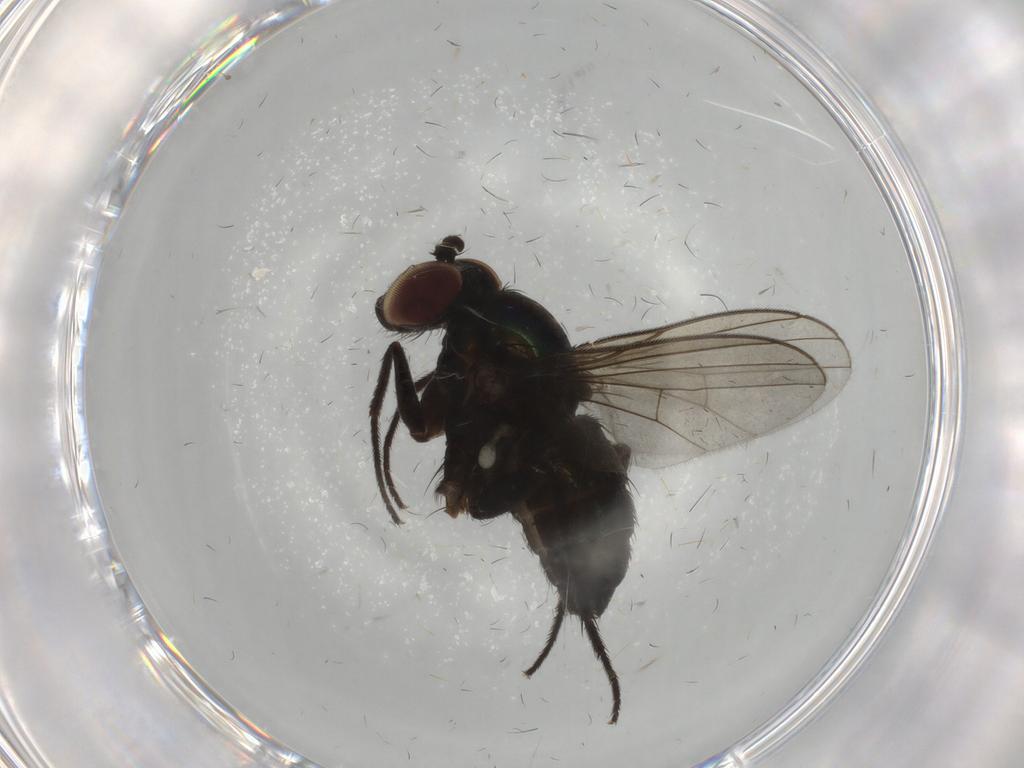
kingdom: Animalia
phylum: Arthropoda
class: Insecta
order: Diptera
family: Dolichopodidae
